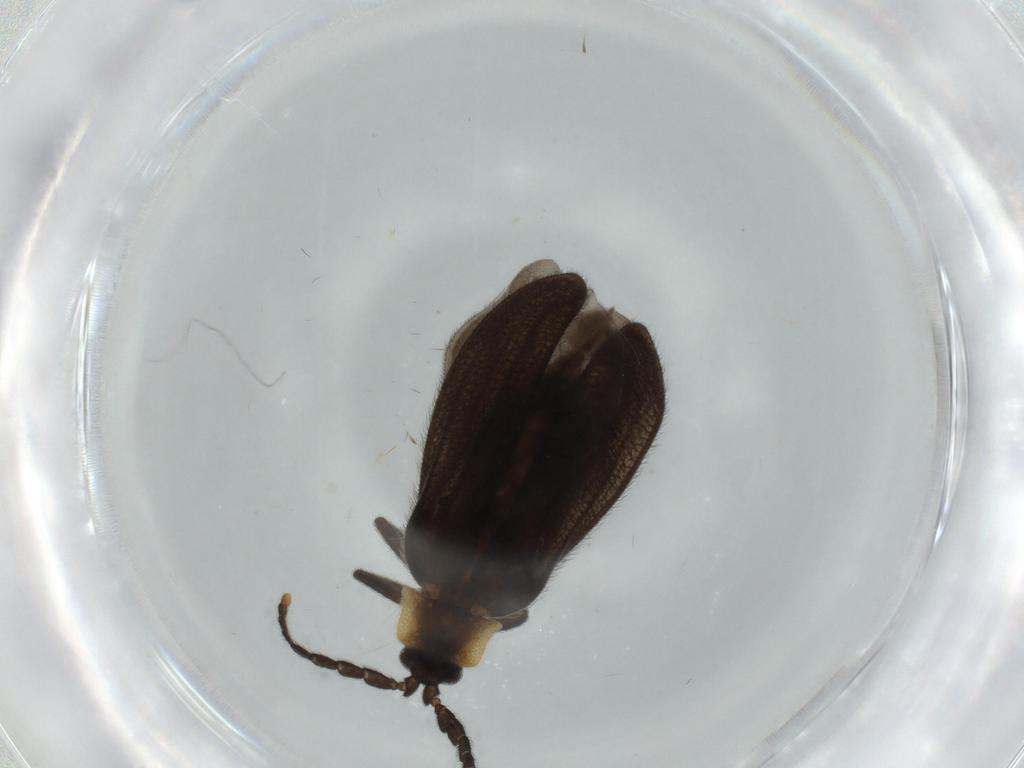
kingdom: Animalia
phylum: Arthropoda
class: Insecta
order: Coleoptera
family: Lycidae
